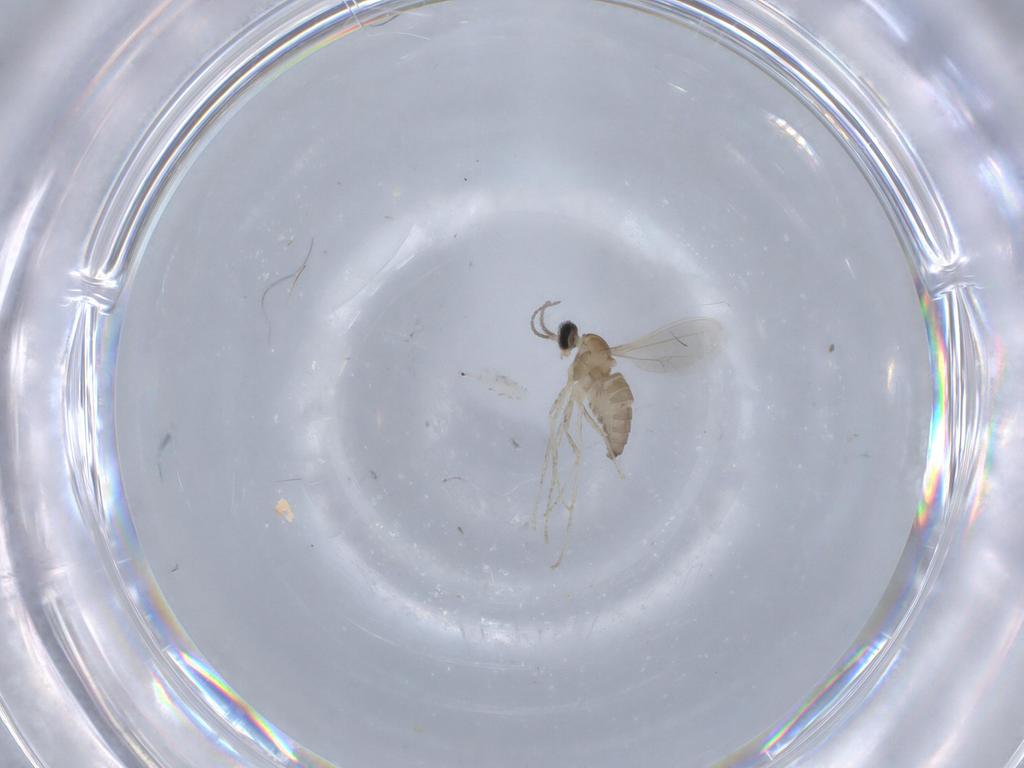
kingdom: Animalia
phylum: Arthropoda
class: Insecta
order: Diptera
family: Cecidomyiidae
